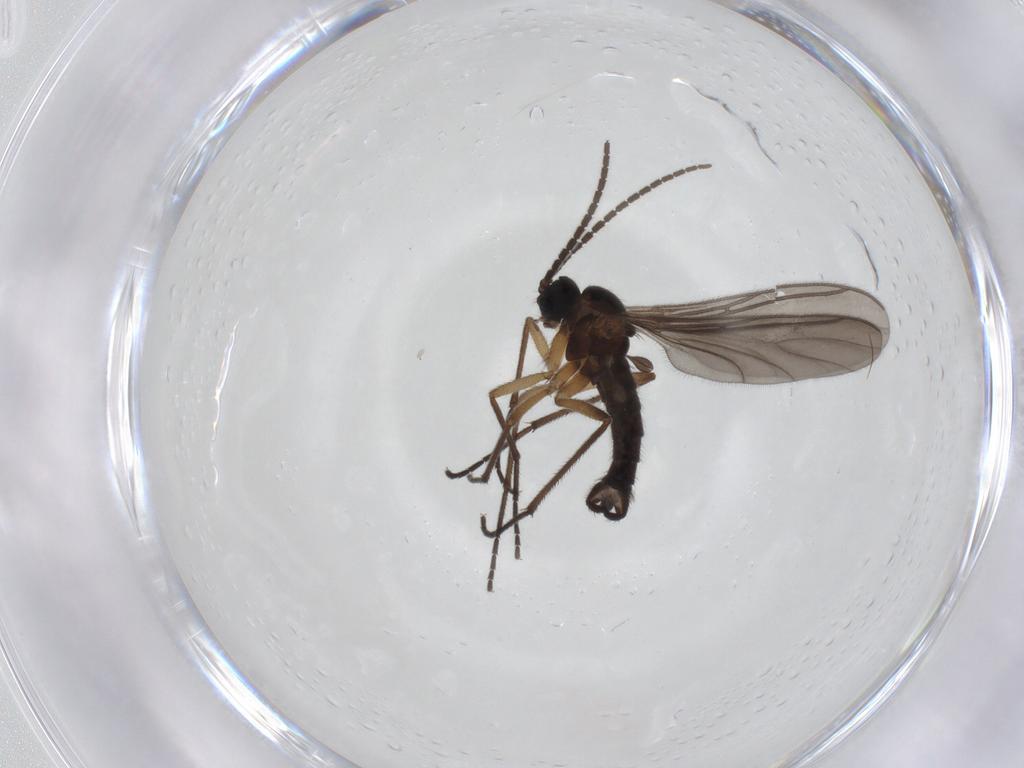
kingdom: Animalia
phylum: Arthropoda
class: Insecta
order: Diptera
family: Sciaridae
